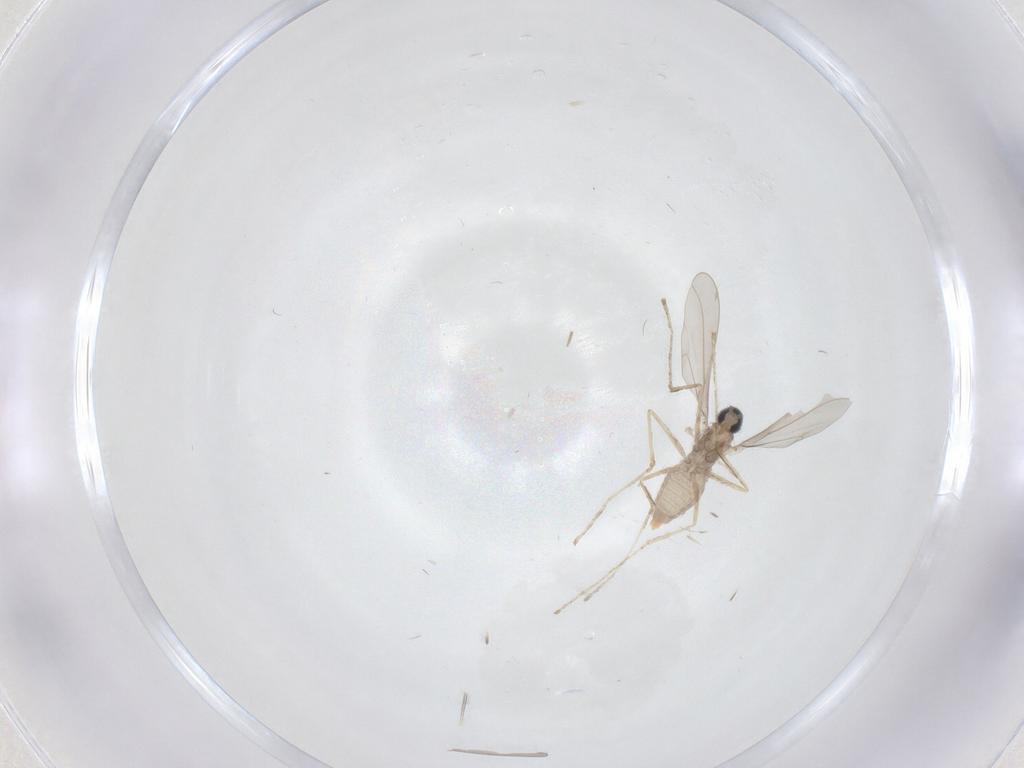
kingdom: Animalia
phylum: Arthropoda
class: Insecta
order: Diptera
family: Cecidomyiidae
